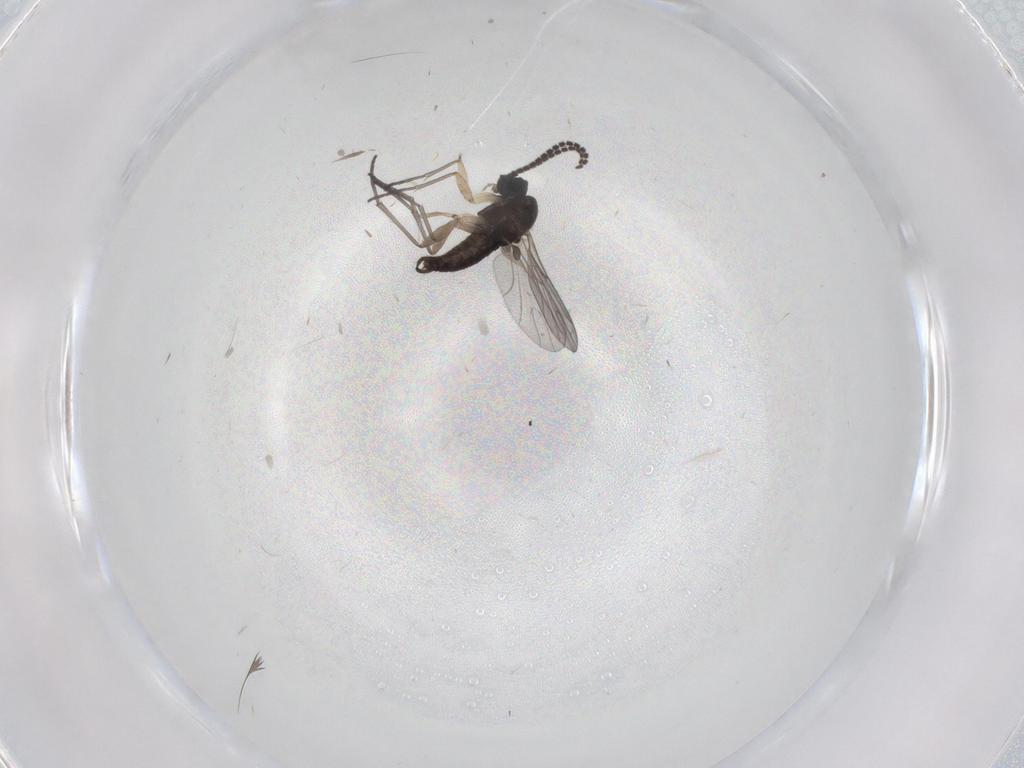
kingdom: Animalia
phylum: Arthropoda
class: Insecta
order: Diptera
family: Sciaridae
